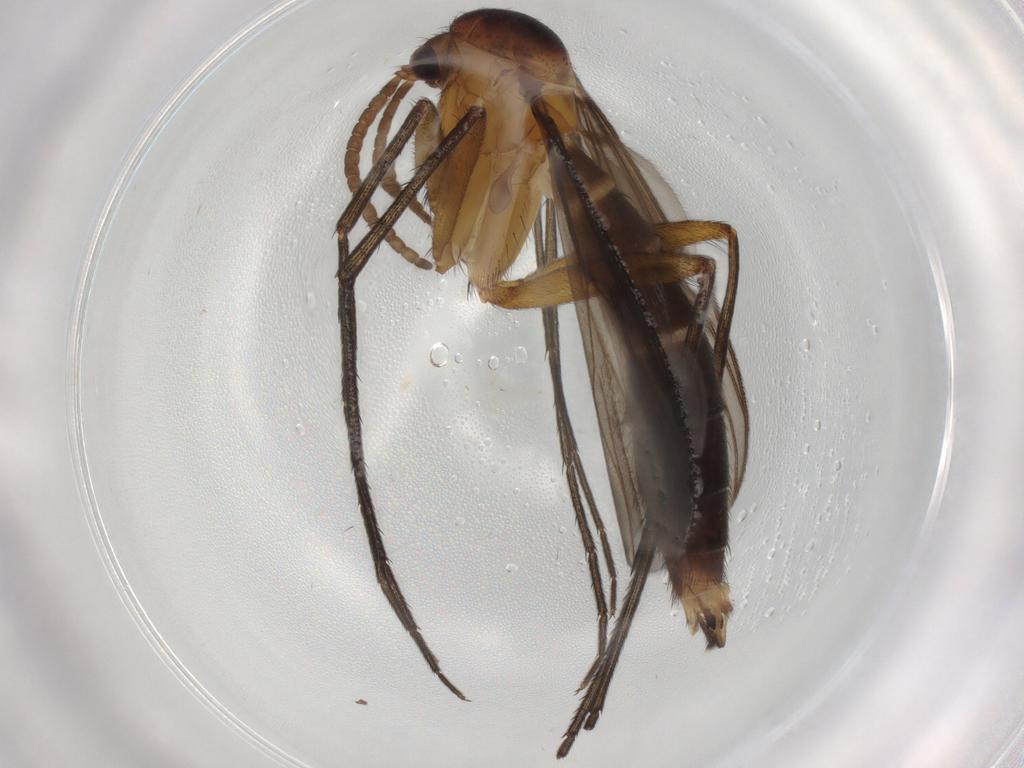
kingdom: Animalia
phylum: Arthropoda
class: Insecta
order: Diptera
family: Mycetophilidae
